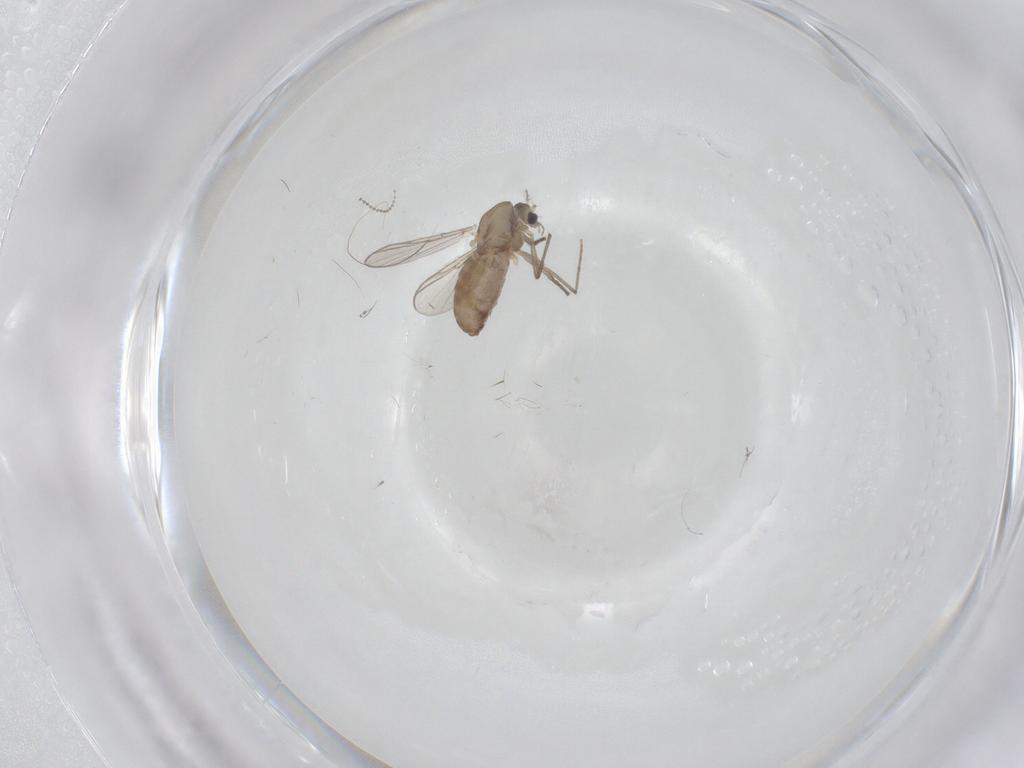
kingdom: Animalia
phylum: Arthropoda
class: Insecta
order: Diptera
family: Chironomidae
